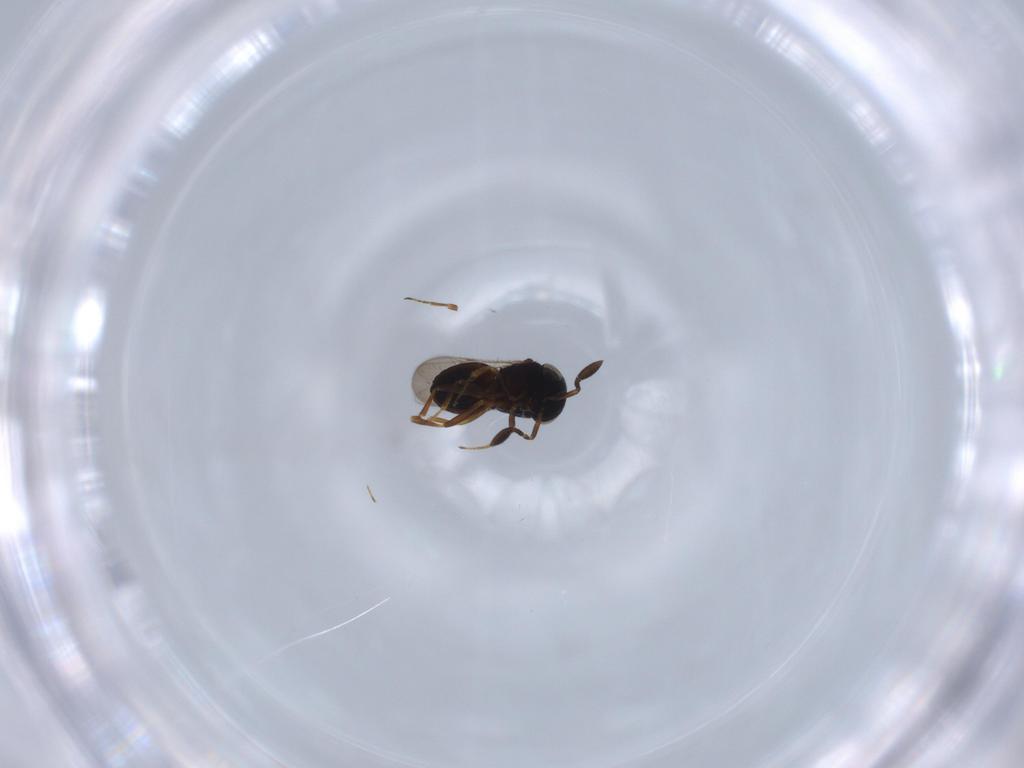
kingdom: Animalia
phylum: Arthropoda
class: Insecta
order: Coleoptera
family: Curculionidae
